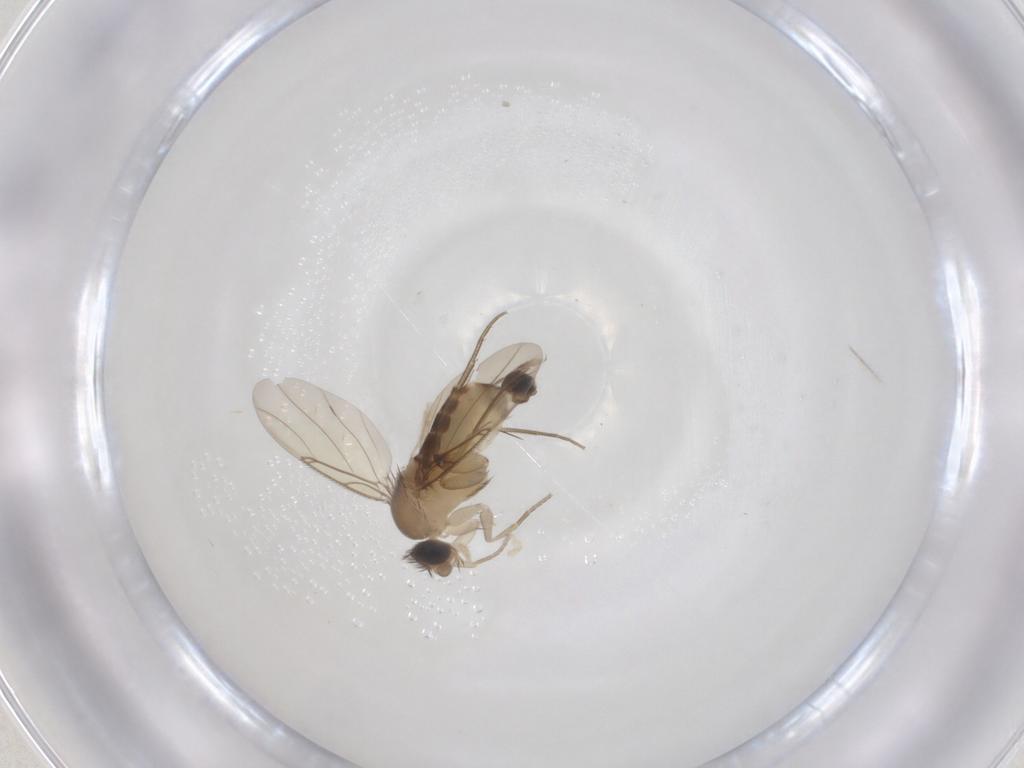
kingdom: Animalia
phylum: Arthropoda
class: Insecta
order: Diptera
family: Phoridae
